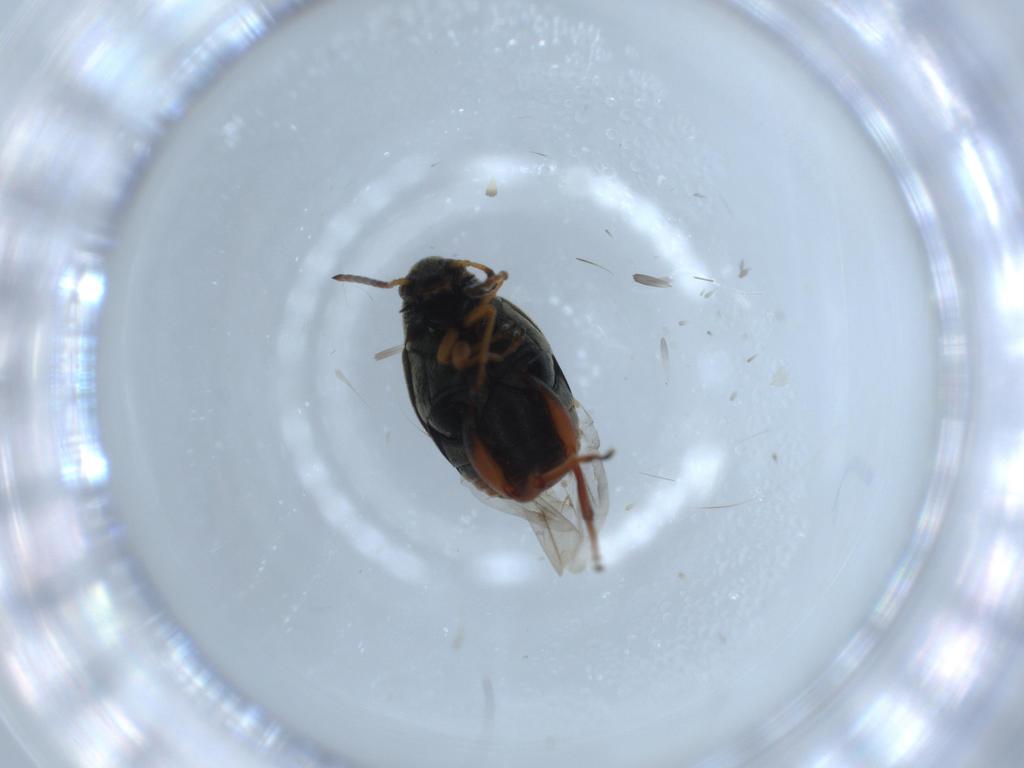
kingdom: Animalia
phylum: Arthropoda
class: Insecta
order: Coleoptera
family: Chrysomelidae
